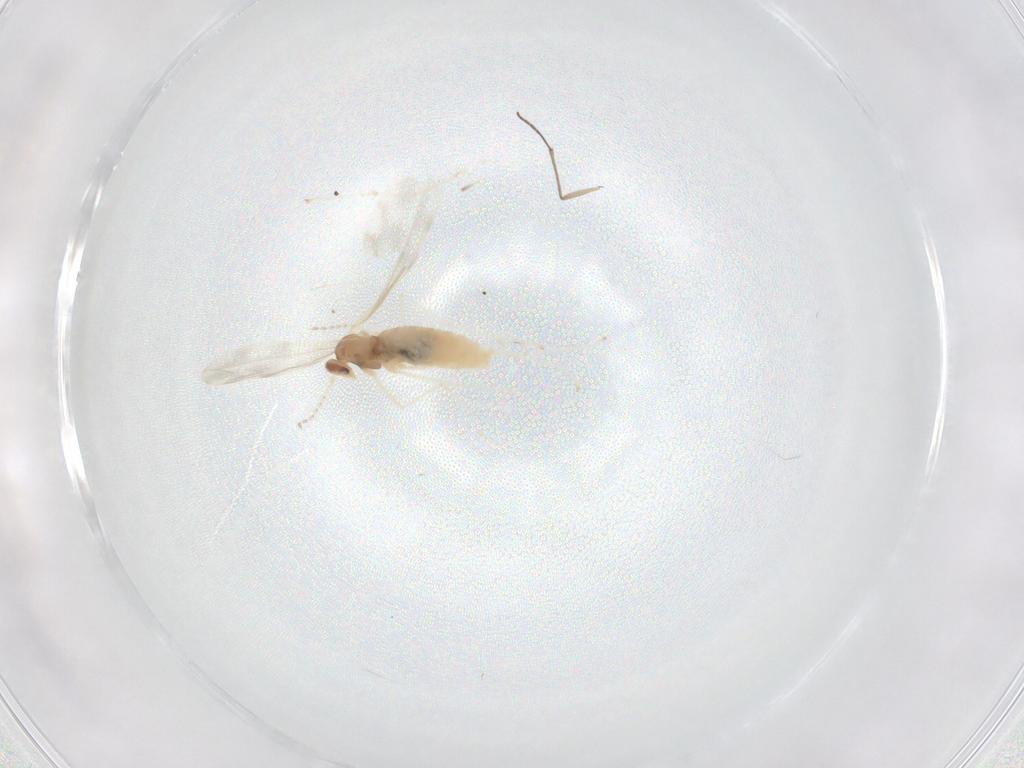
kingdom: Animalia
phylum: Arthropoda
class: Insecta
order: Diptera
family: Cecidomyiidae
